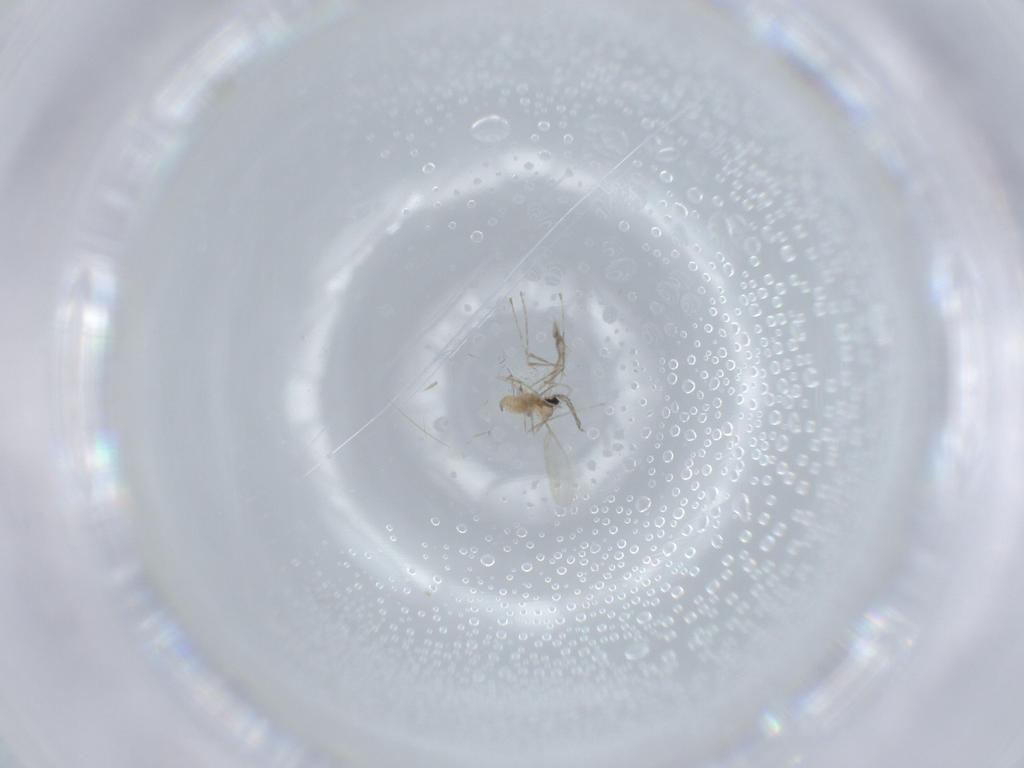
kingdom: Animalia
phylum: Arthropoda
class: Insecta
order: Diptera
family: Cecidomyiidae
